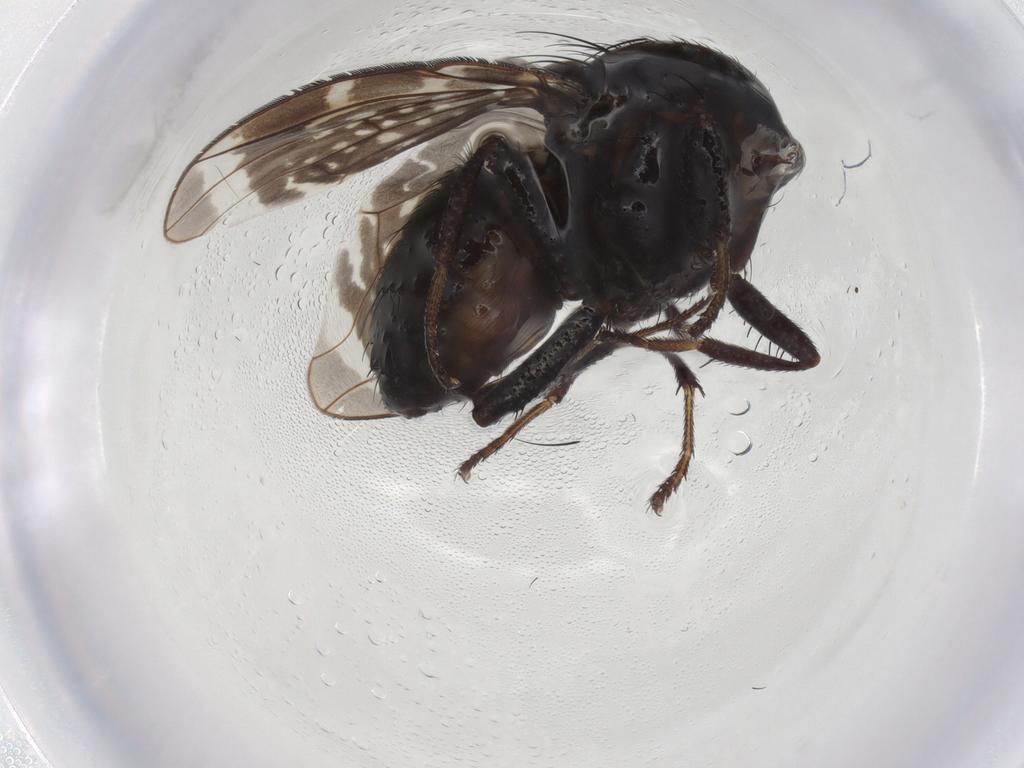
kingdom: Animalia
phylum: Arthropoda
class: Insecta
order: Diptera
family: Lauxaniidae
